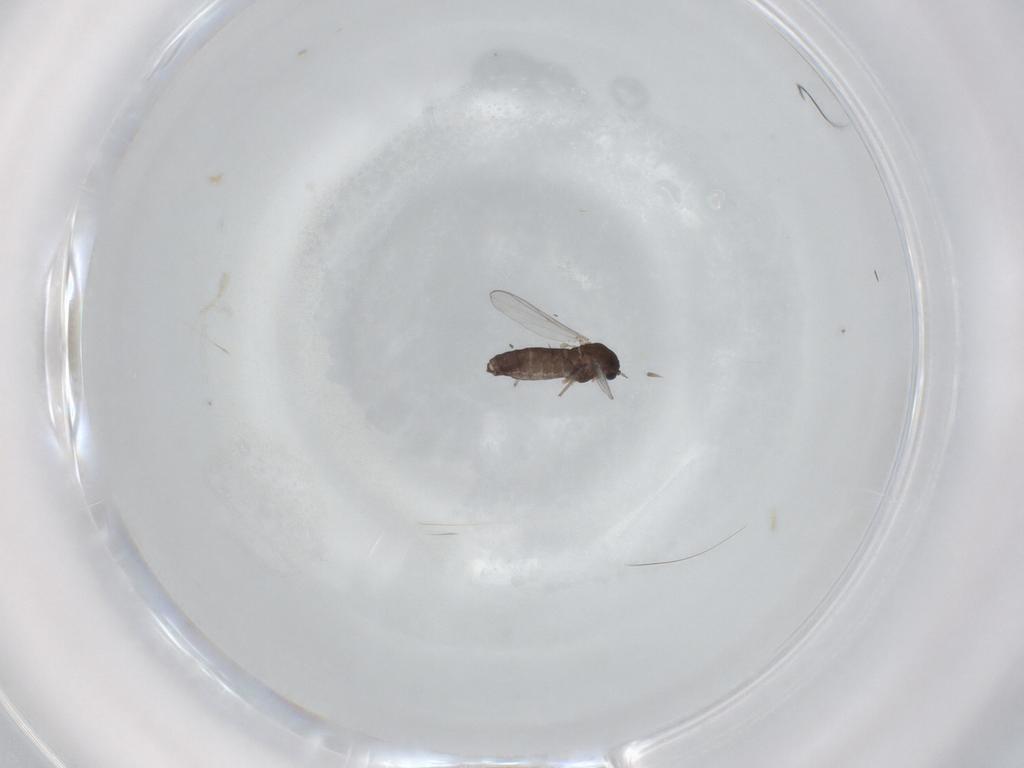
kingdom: Animalia
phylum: Arthropoda
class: Insecta
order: Diptera
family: Chironomidae
